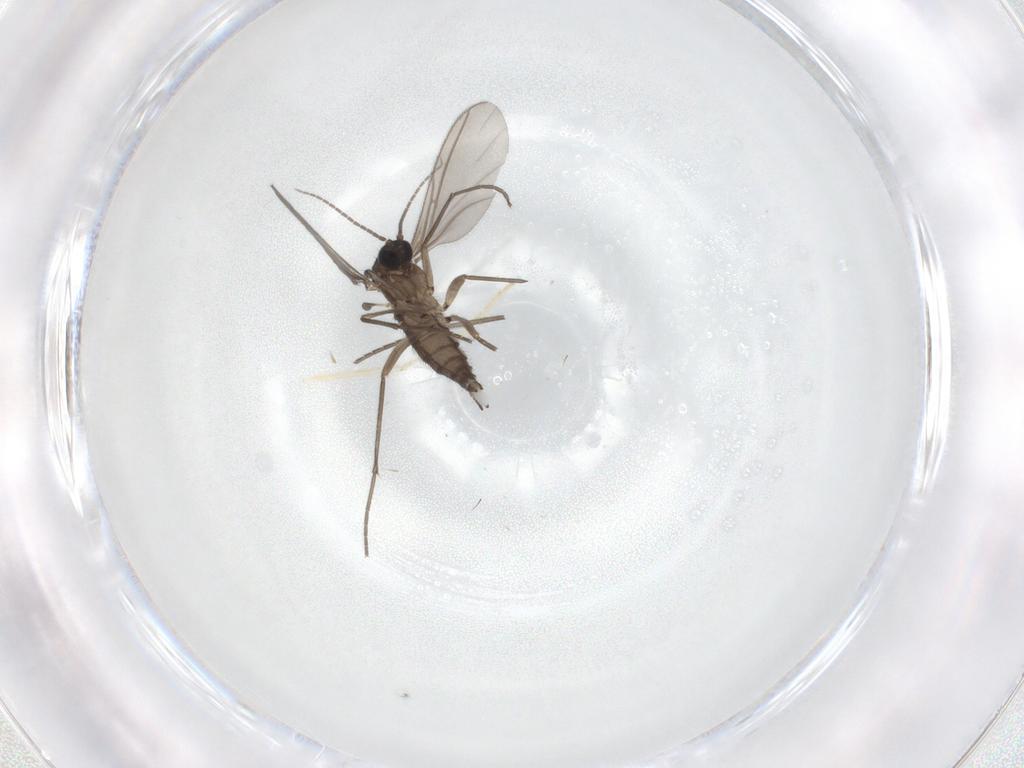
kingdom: Animalia
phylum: Arthropoda
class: Insecta
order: Diptera
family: Sciaridae
